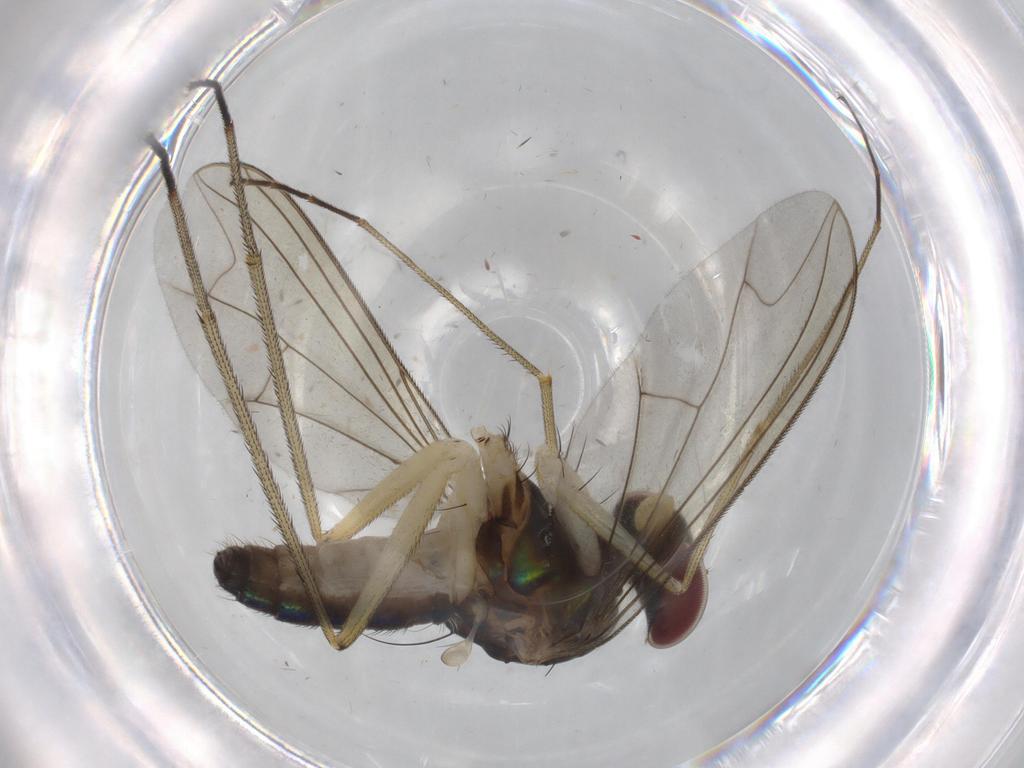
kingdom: Animalia
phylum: Arthropoda
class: Insecta
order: Diptera
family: Dolichopodidae
